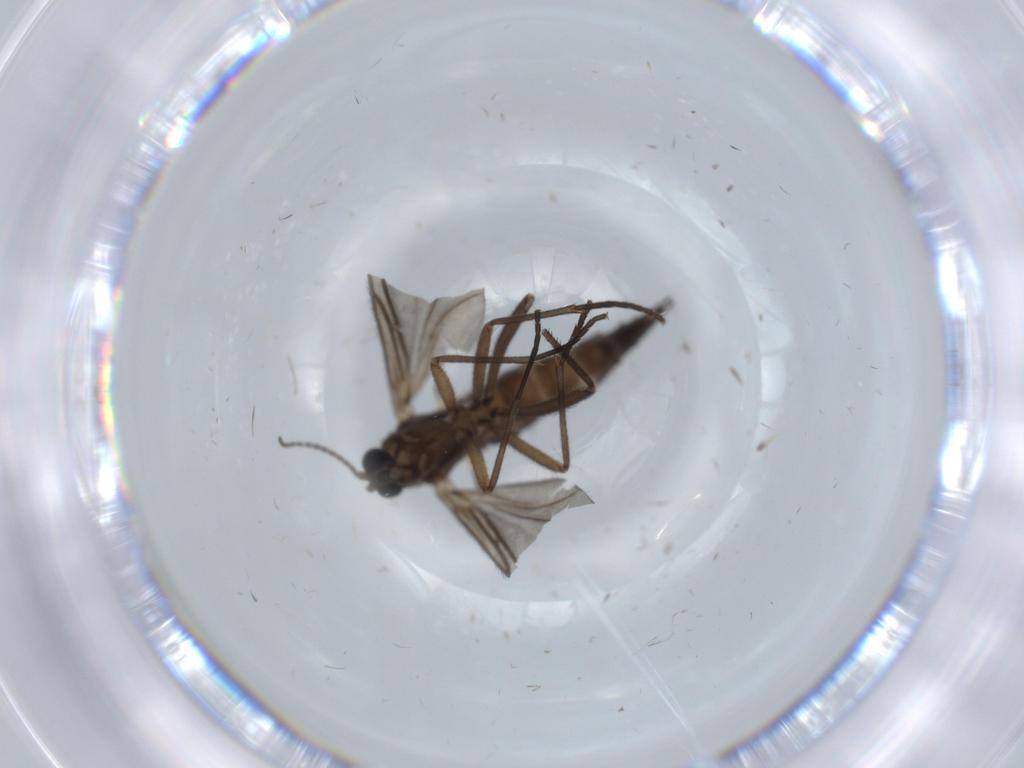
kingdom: Animalia
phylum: Arthropoda
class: Insecta
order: Diptera
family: Sciaridae
